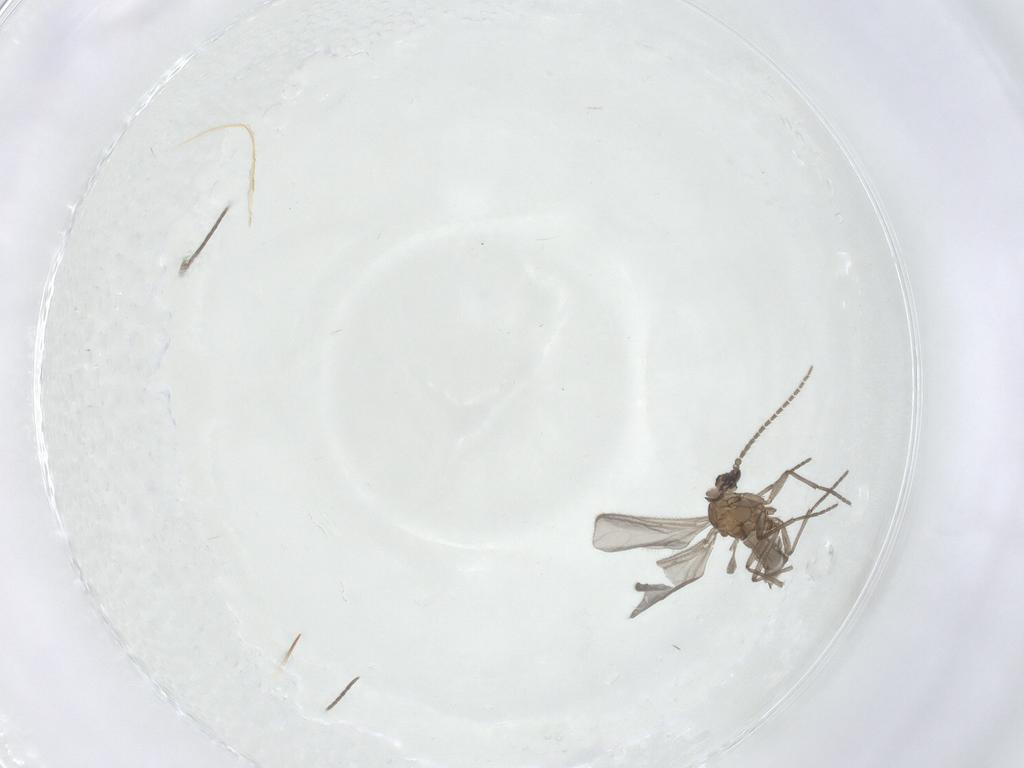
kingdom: Animalia
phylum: Arthropoda
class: Insecta
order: Diptera
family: Sciaridae
